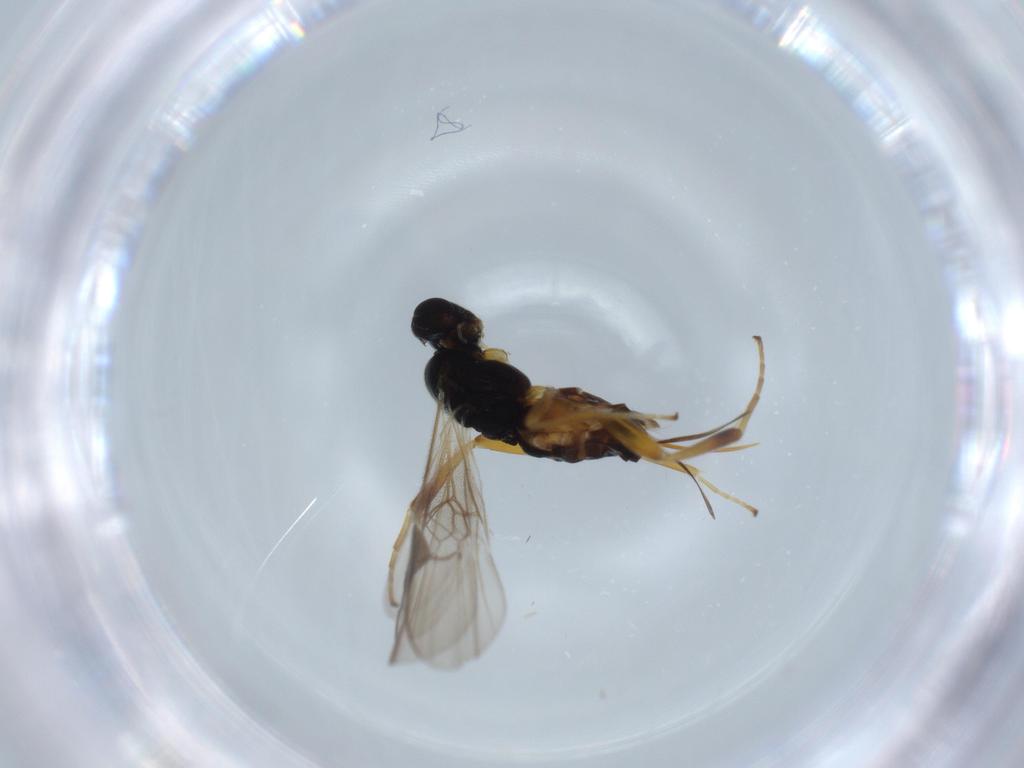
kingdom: Animalia
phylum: Arthropoda
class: Insecta
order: Hymenoptera
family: Braconidae
